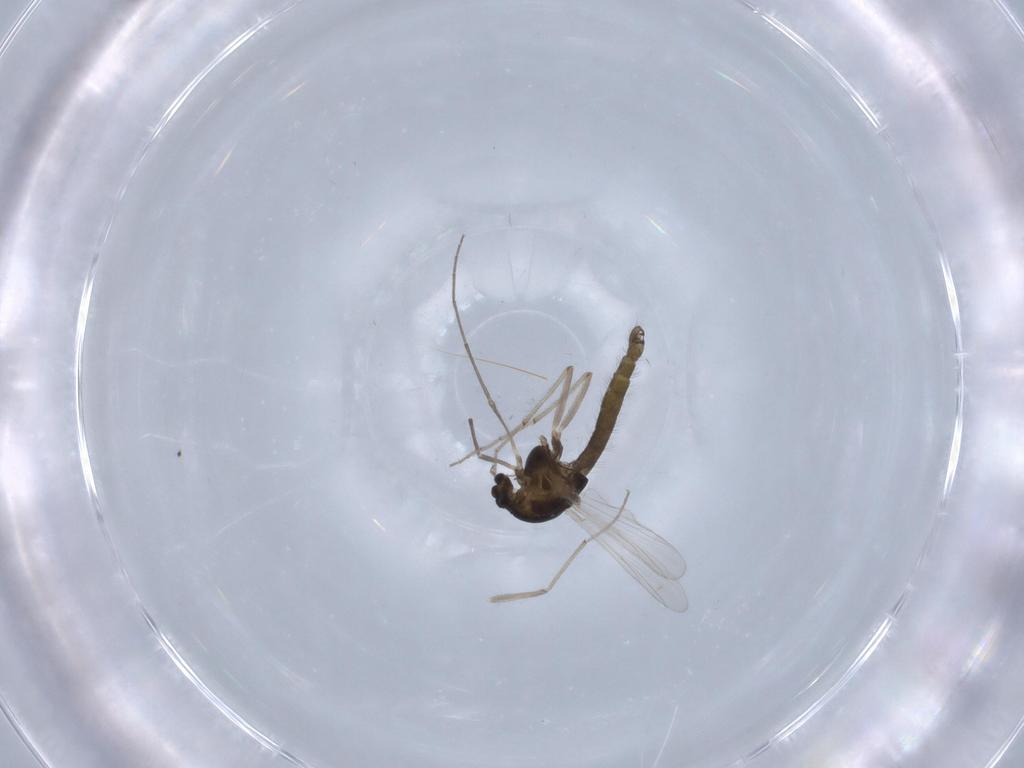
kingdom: Animalia
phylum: Arthropoda
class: Insecta
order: Diptera
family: Chironomidae
